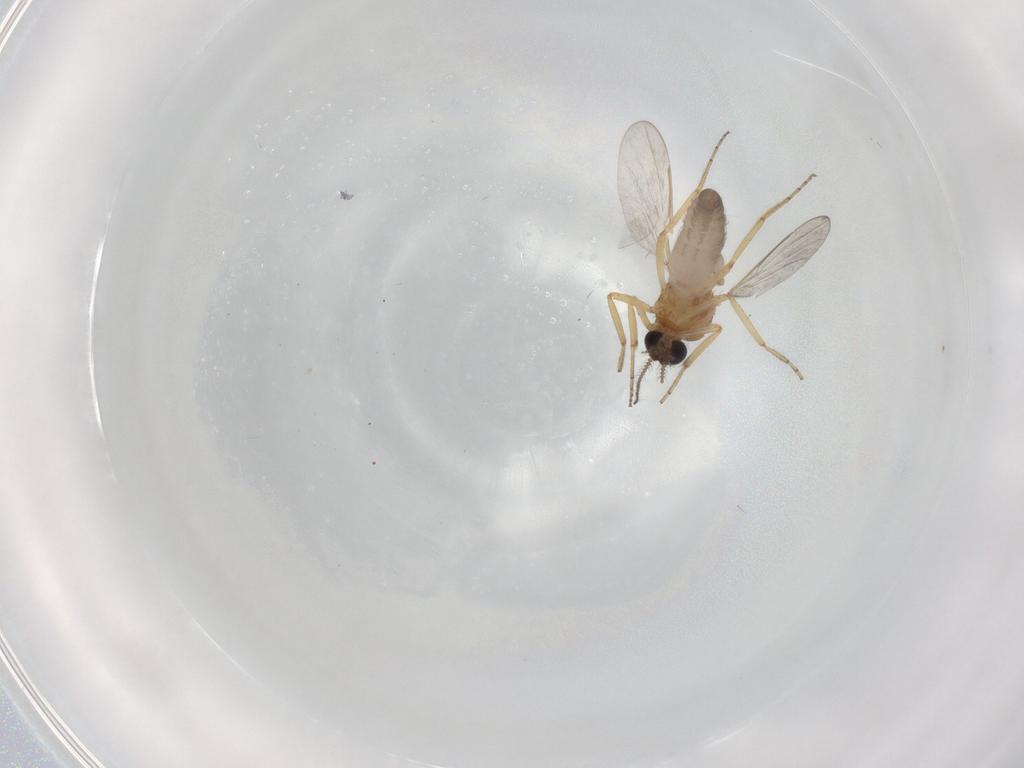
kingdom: Animalia
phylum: Arthropoda
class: Insecta
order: Diptera
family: Ceratopogonidae
